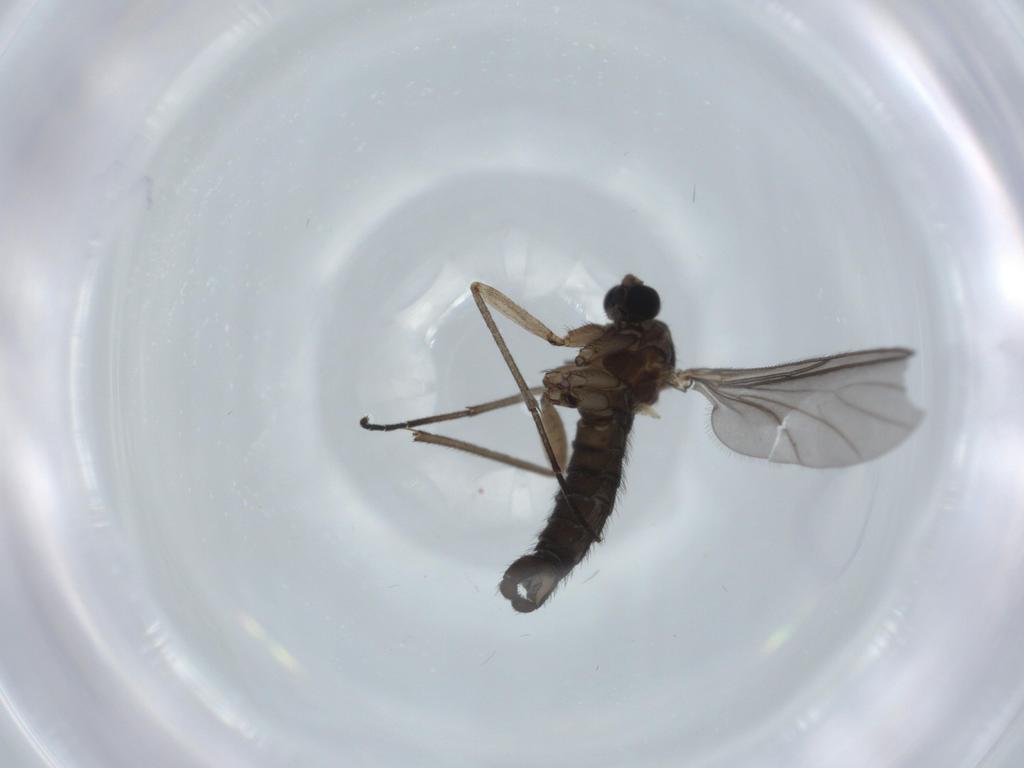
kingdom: Animalia
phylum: Arthropoda
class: Insecta
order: Diptera
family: Sciaridae
